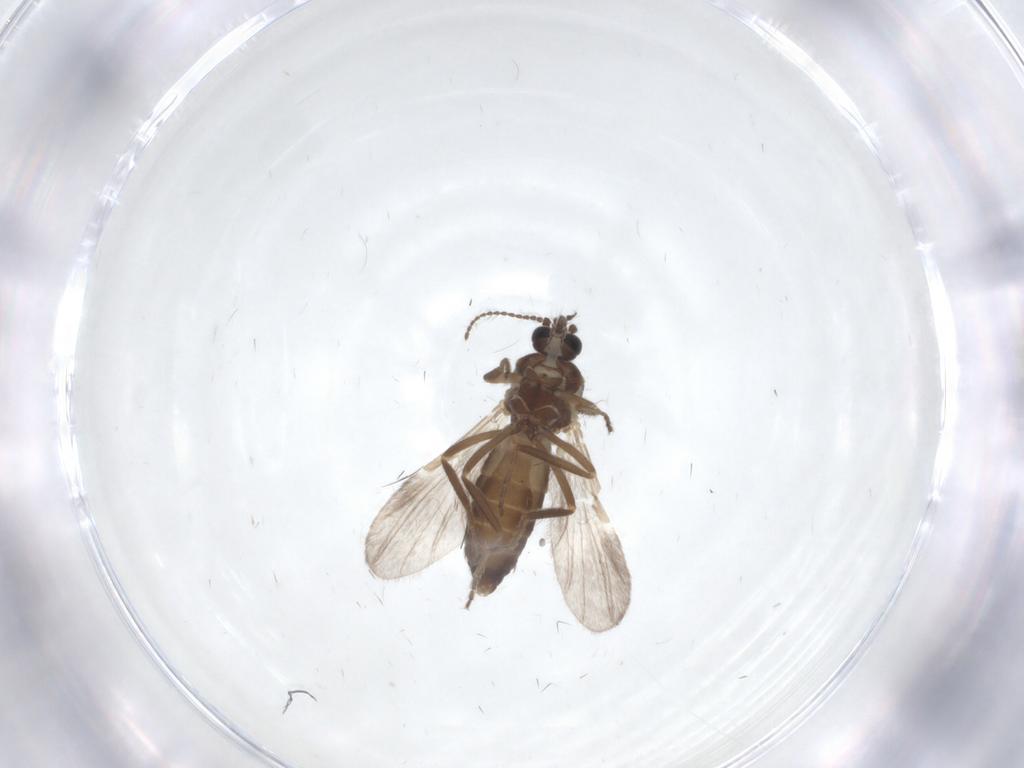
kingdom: Animalia
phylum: Arthropoda
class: Insecta
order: Diptera
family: Ceratopogonidae
